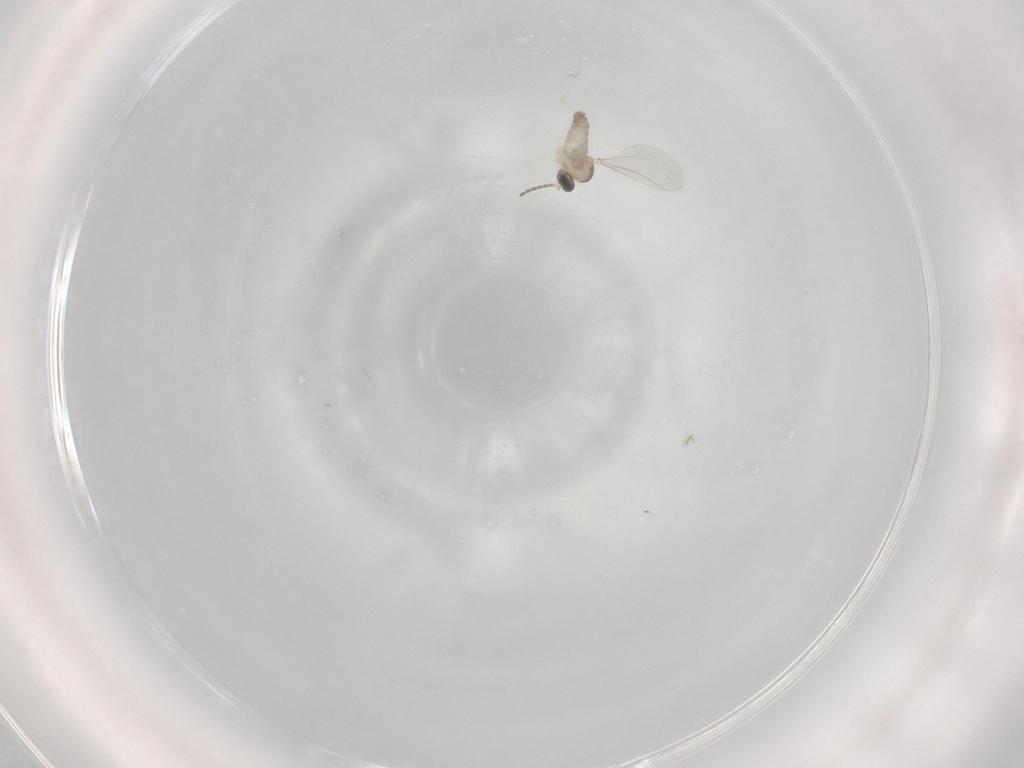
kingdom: Animalia
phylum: Arthropoda
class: Insecta
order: Diptera
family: Cecidomyiidae
